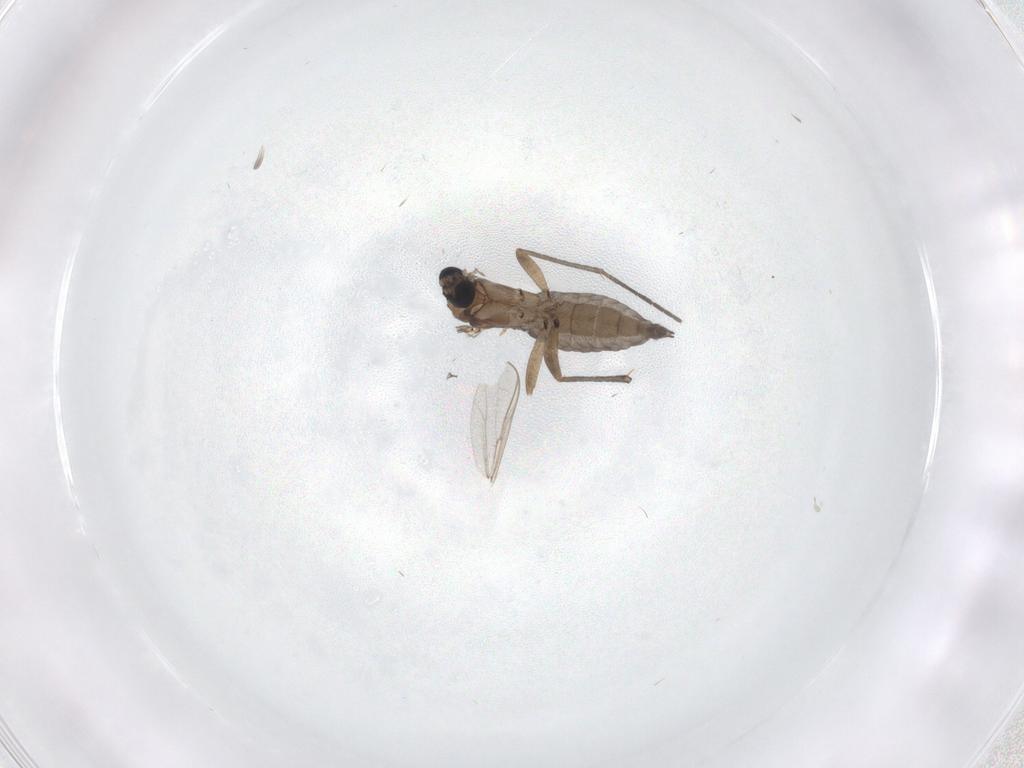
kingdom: Animalia
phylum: Arthropoda
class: Insecta
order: Diptera
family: Sciaridae
